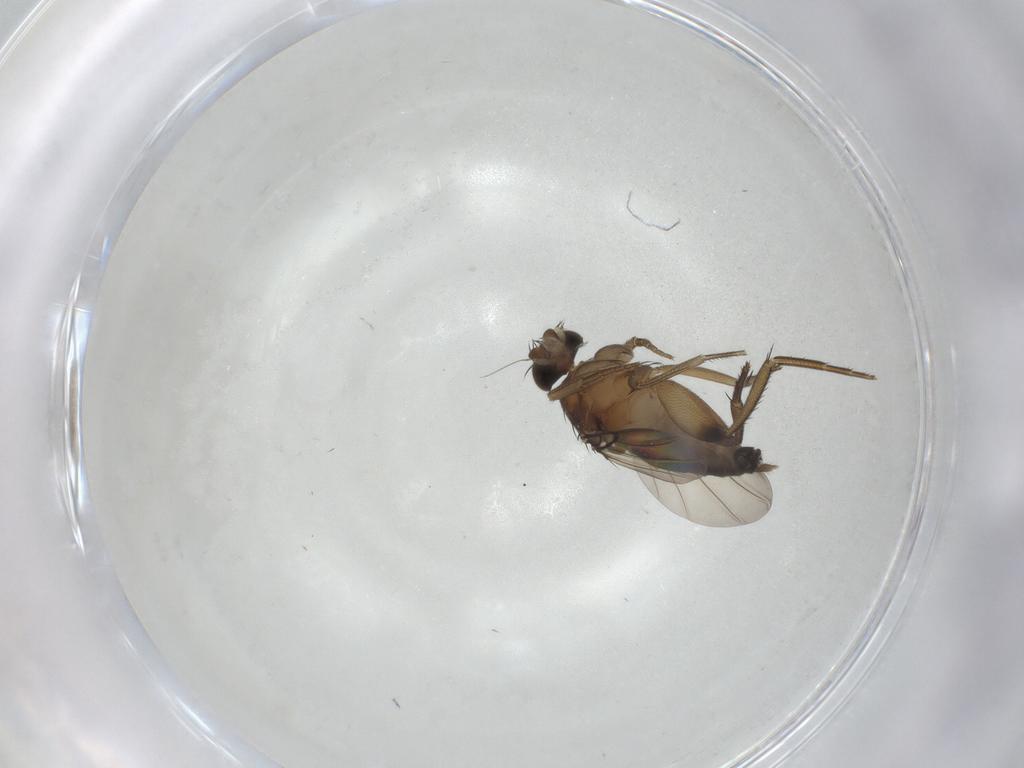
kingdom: Animalia
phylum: Arthropoda
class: Insecta
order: Diptera
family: Phoridae
